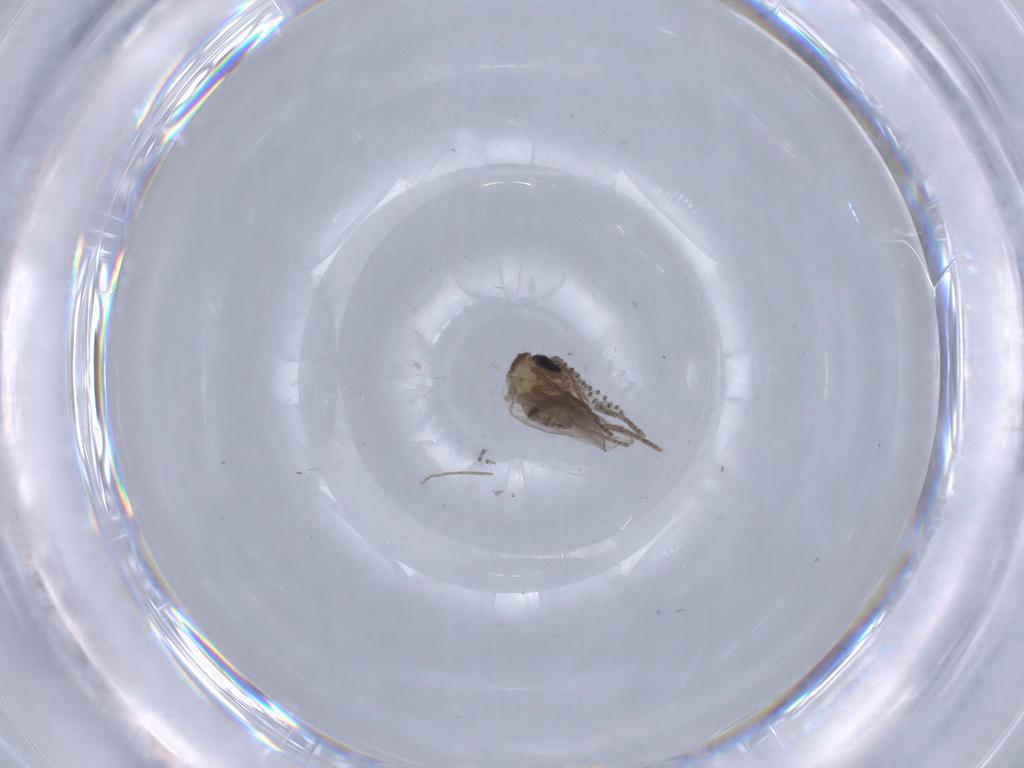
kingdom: Animalia
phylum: Arthropoda
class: Insecta
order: Diptera
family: Psychodidae
